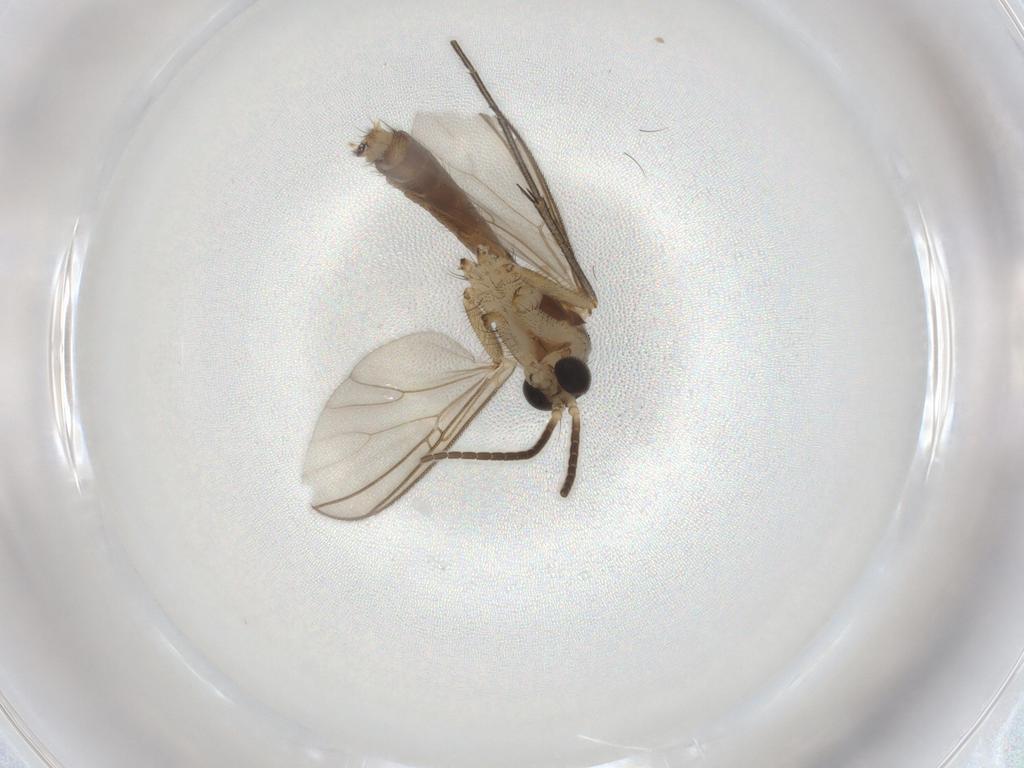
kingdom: Animalia
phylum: Arthropoda
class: Insecta
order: Diptera
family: Mycetophilidae
